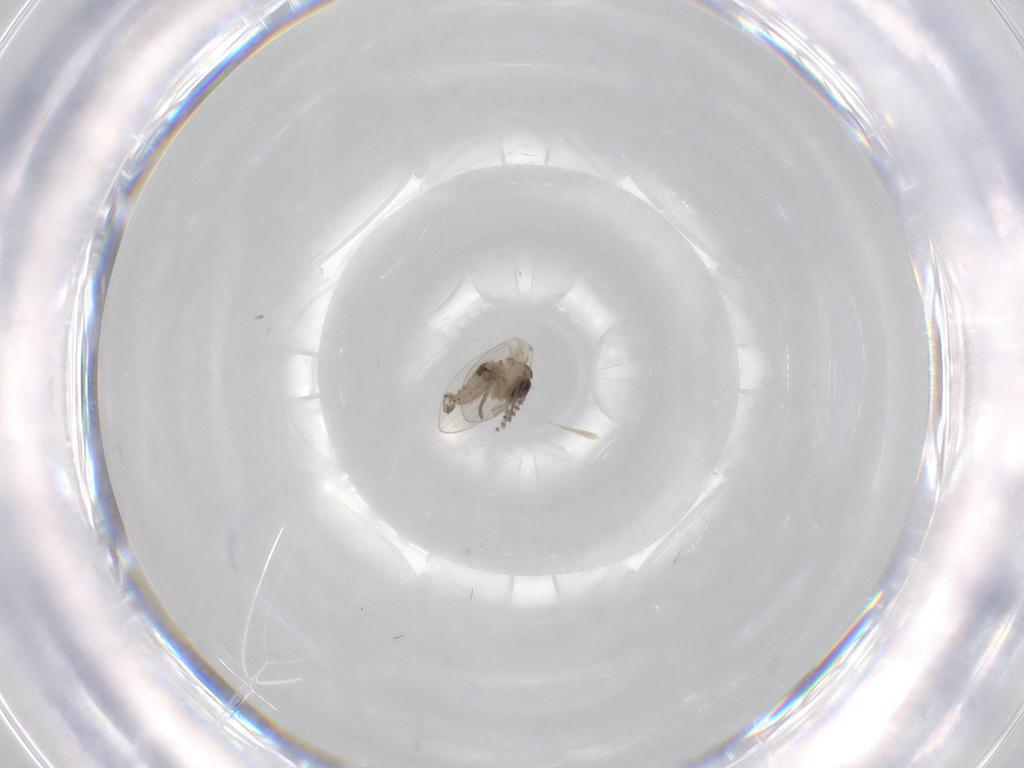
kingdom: Animalia
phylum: Arthropoda
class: Insecta
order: Diptera
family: Psychodidae
